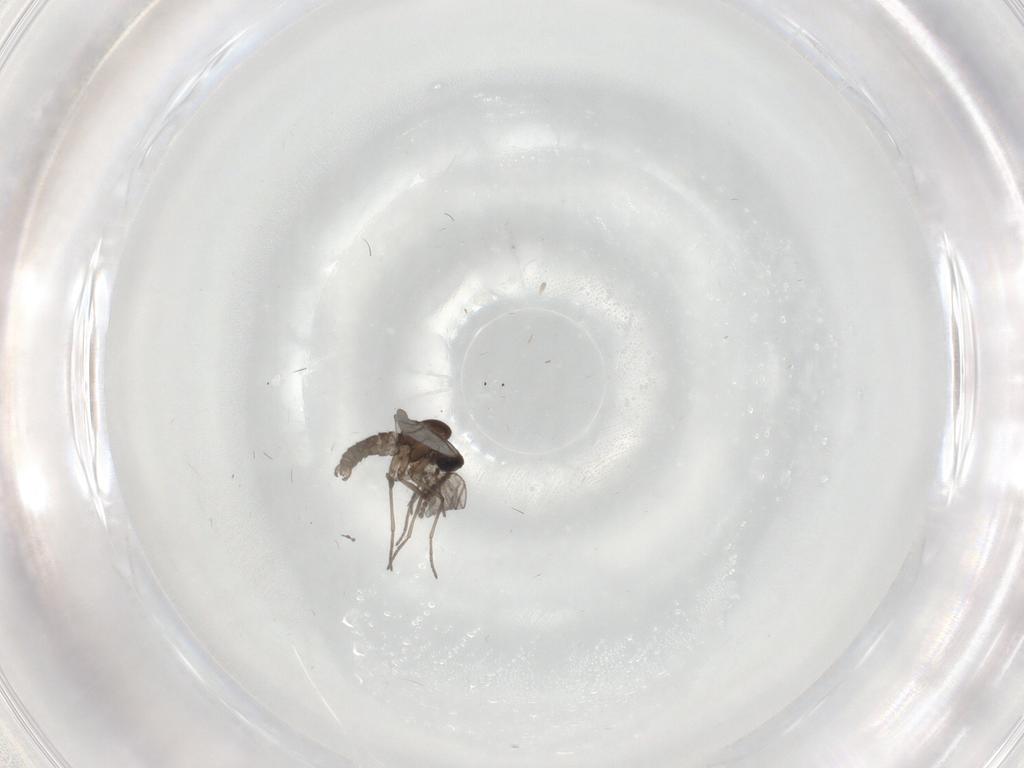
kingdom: Animalia
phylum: Arthropoda
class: Insecta
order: Diptera
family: Chironomidae
